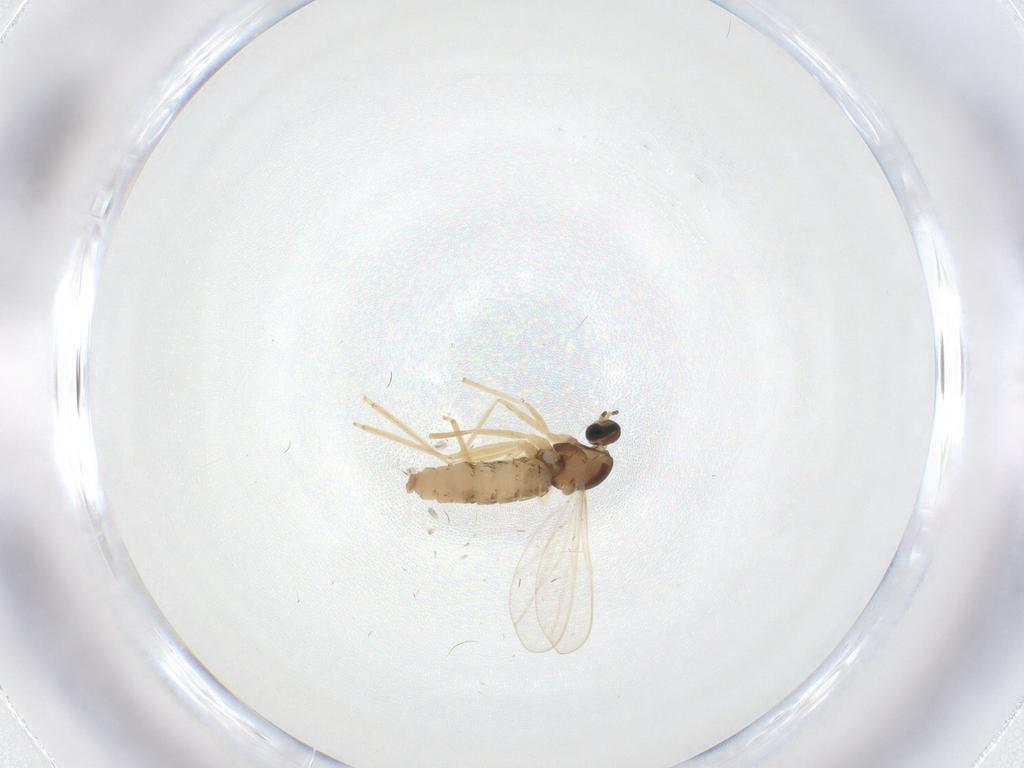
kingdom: Animalia
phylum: Arthropoda
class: Insecta
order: Diptera
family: Cecidomyiidae
